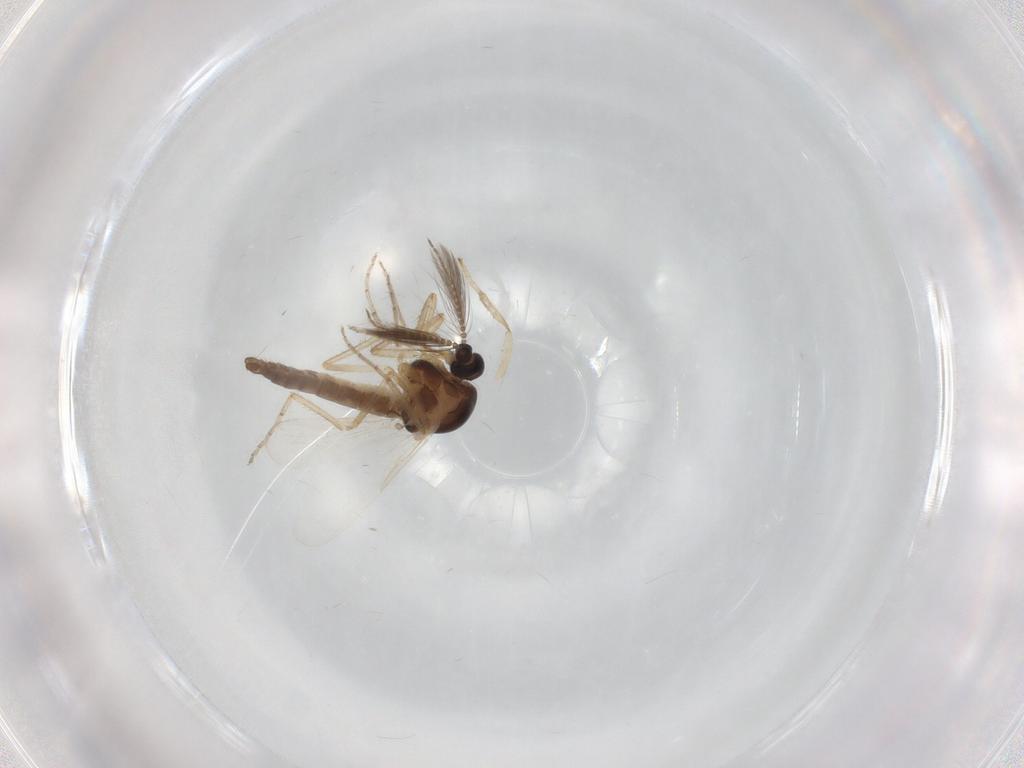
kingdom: Animalia
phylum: Arthropoda
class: Insecta
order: Diptera
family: Ceratopogonidae
